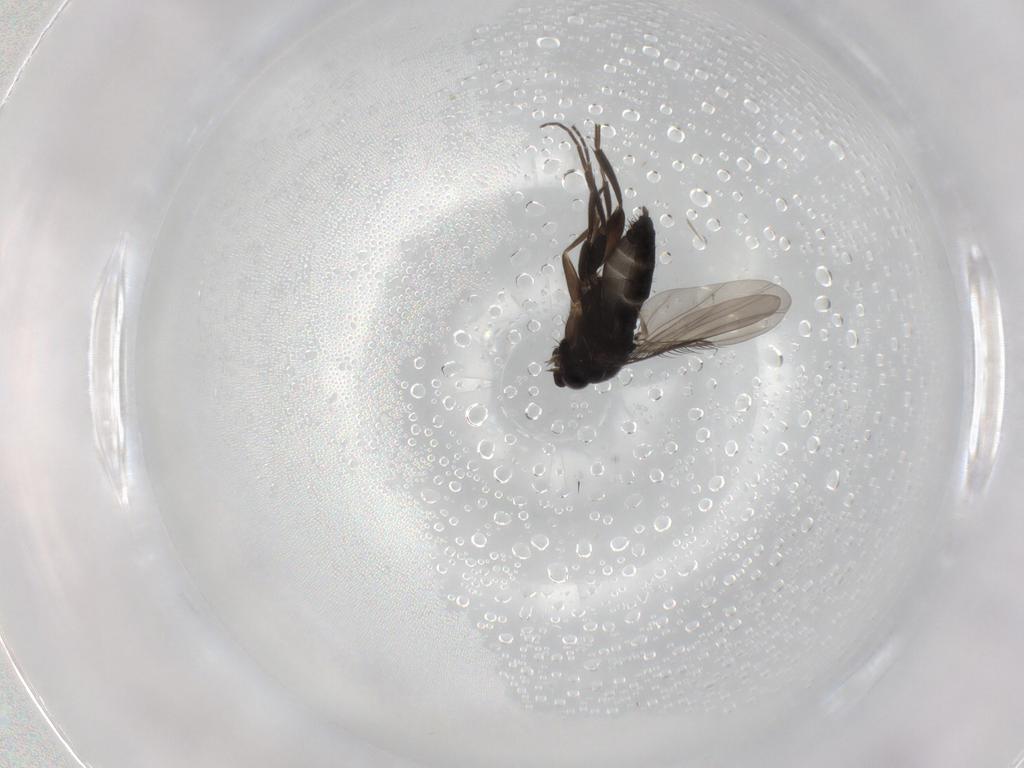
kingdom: Animalia
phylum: Arthropoda
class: Insecta
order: Diptera
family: Phoridae
